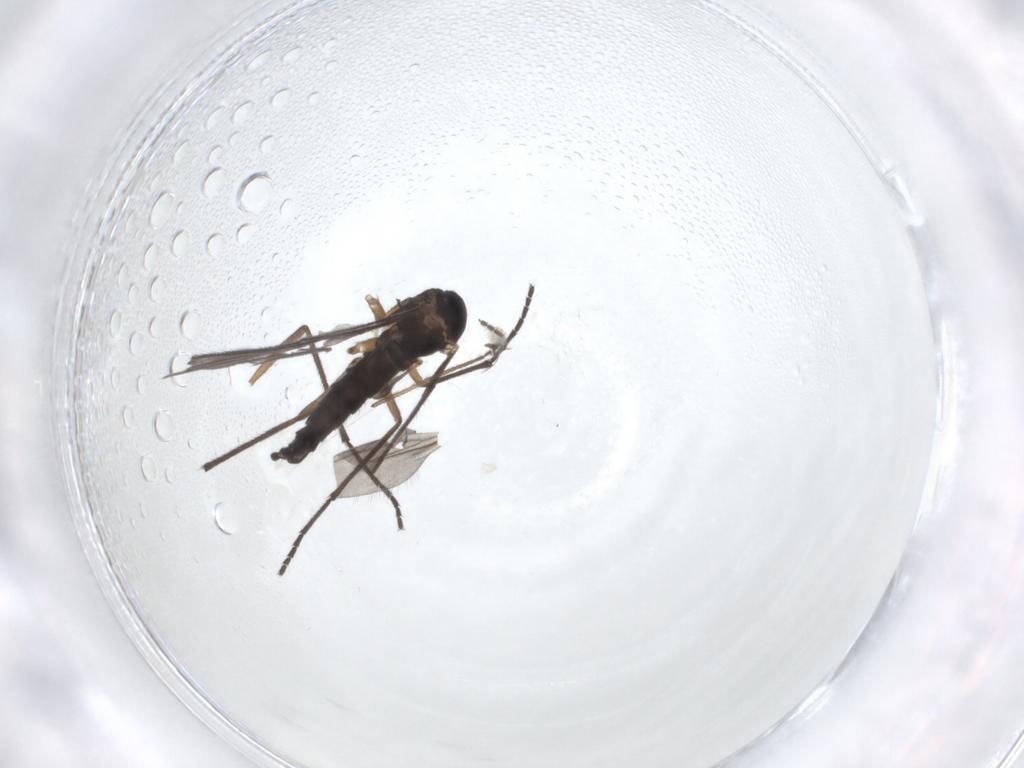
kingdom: Animalia
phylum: Arthropoda
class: Insecta
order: Diptera
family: Sciaridae
